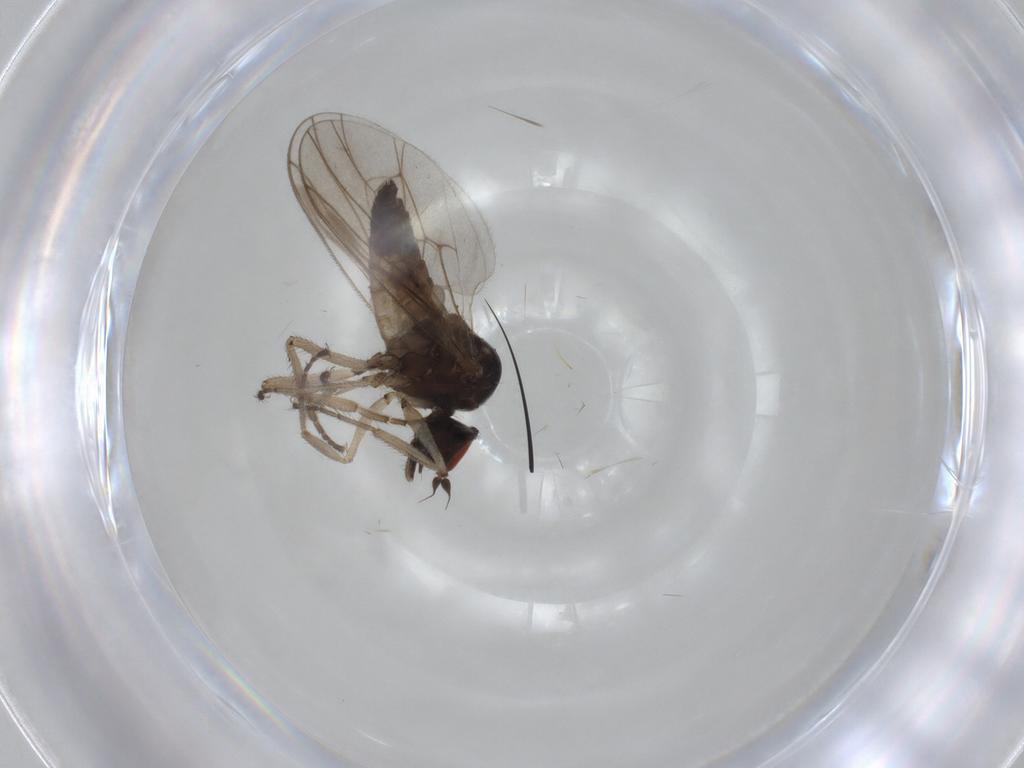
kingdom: Animalia
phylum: Arthropoda
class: Insecta
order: Diptera
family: Hybotidae
